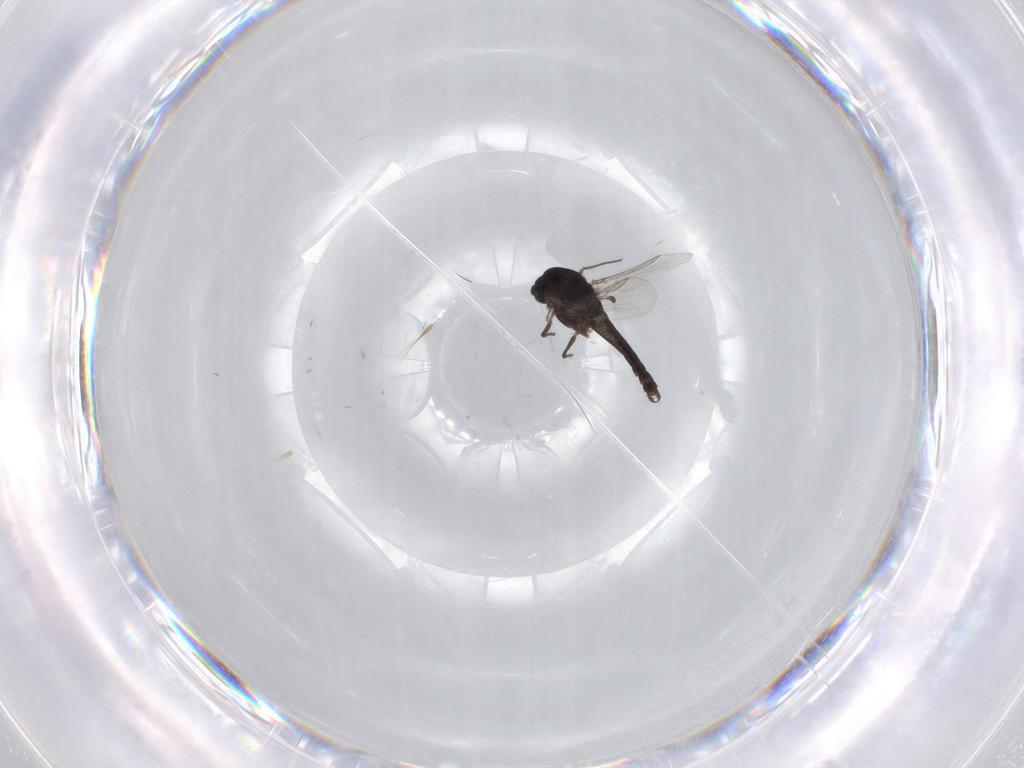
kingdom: Animalia
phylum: Arthropoda
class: Insecta
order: Diptera
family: Chironomidae
